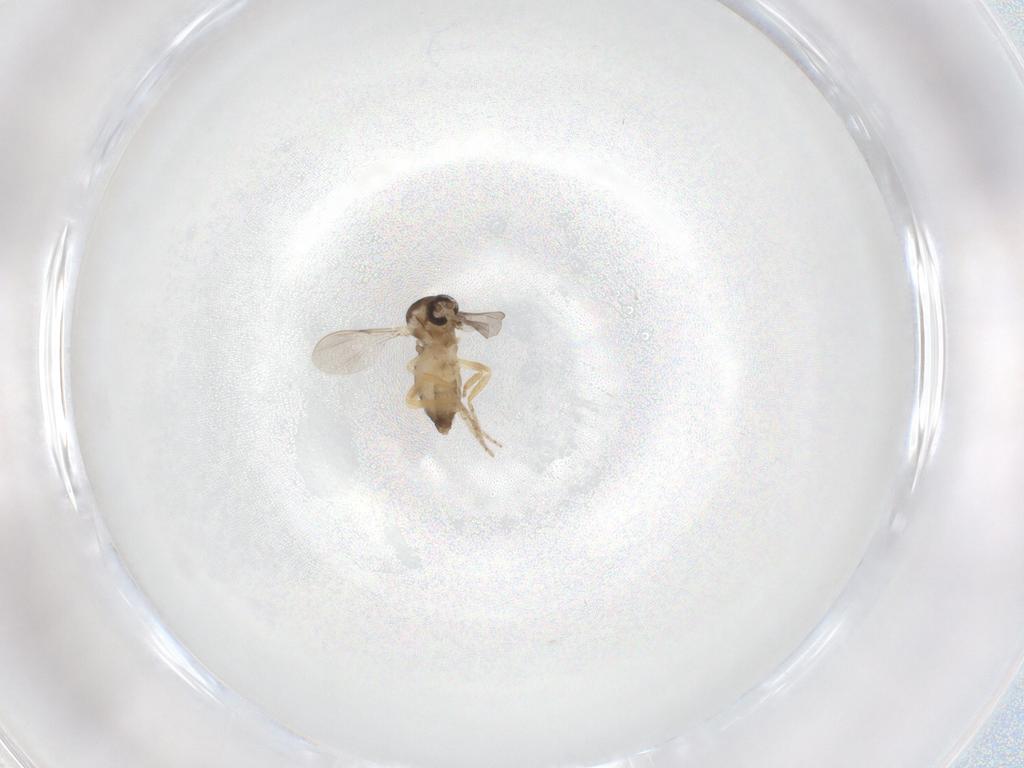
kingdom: Animalia
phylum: Arthropoda
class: Insecta
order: Diptera
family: Ceratopogonidae
